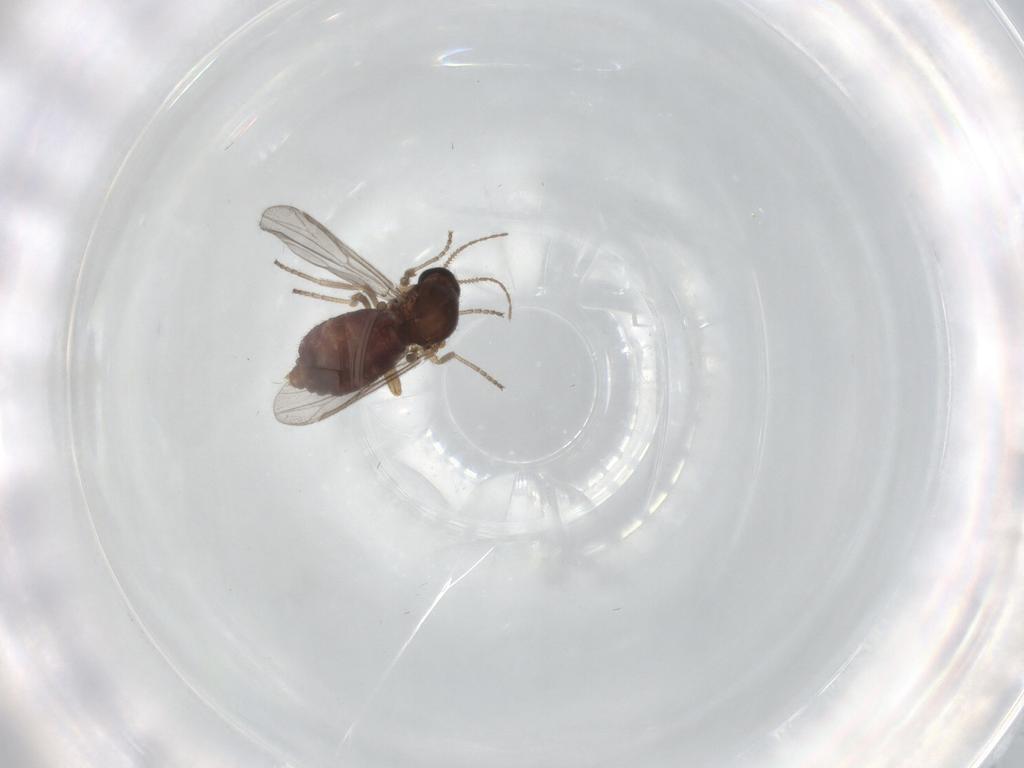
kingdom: Animalia
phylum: Arthropoda
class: Insecta
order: Diptera
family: Ceratopogonidae
